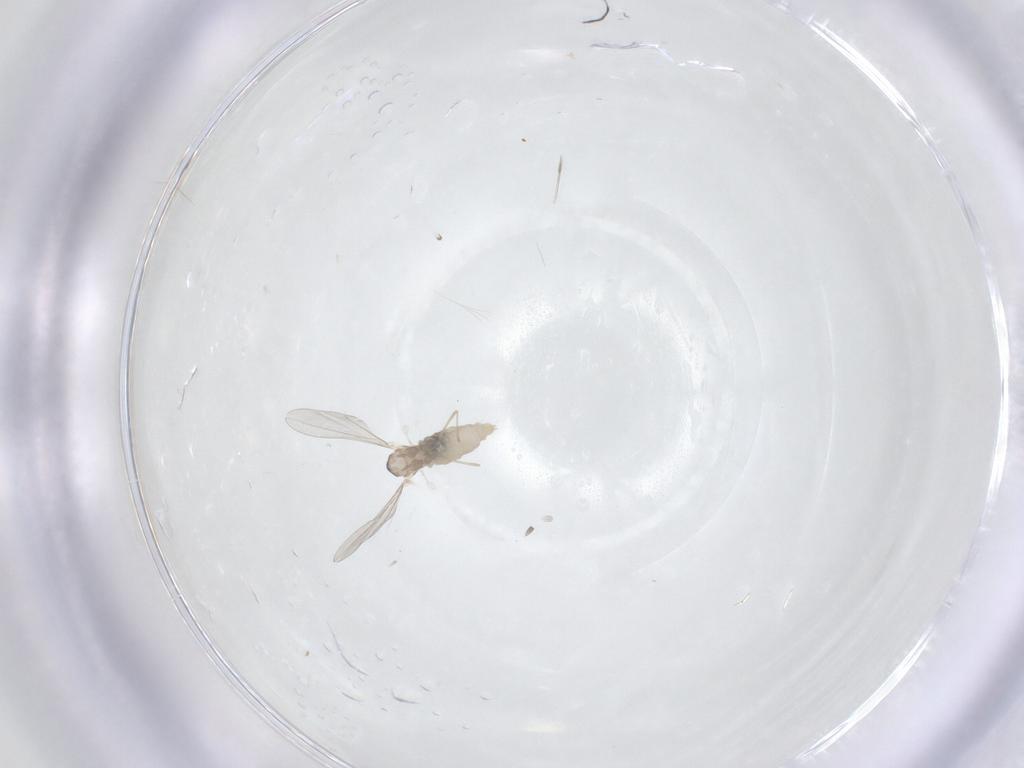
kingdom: Animalia
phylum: Arthropoda
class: Insecta
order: Diptera
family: Cecidomyiidae
